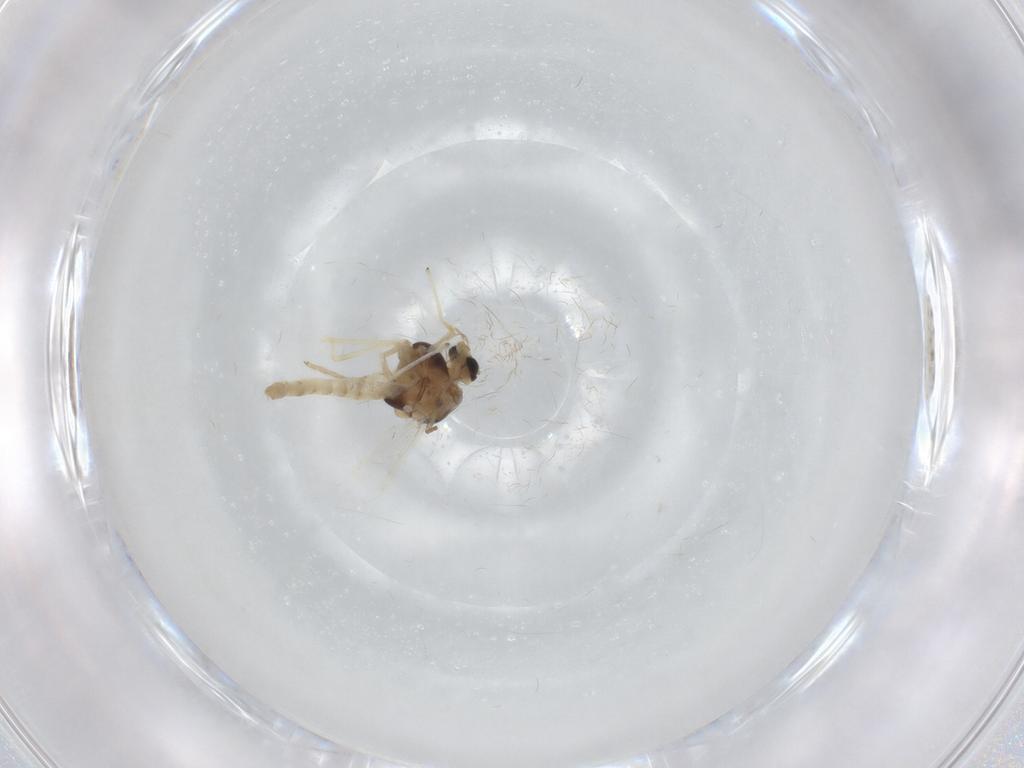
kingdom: Animalia
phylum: Arthropoda
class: Insecta
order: Diptera
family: Chironomidae
